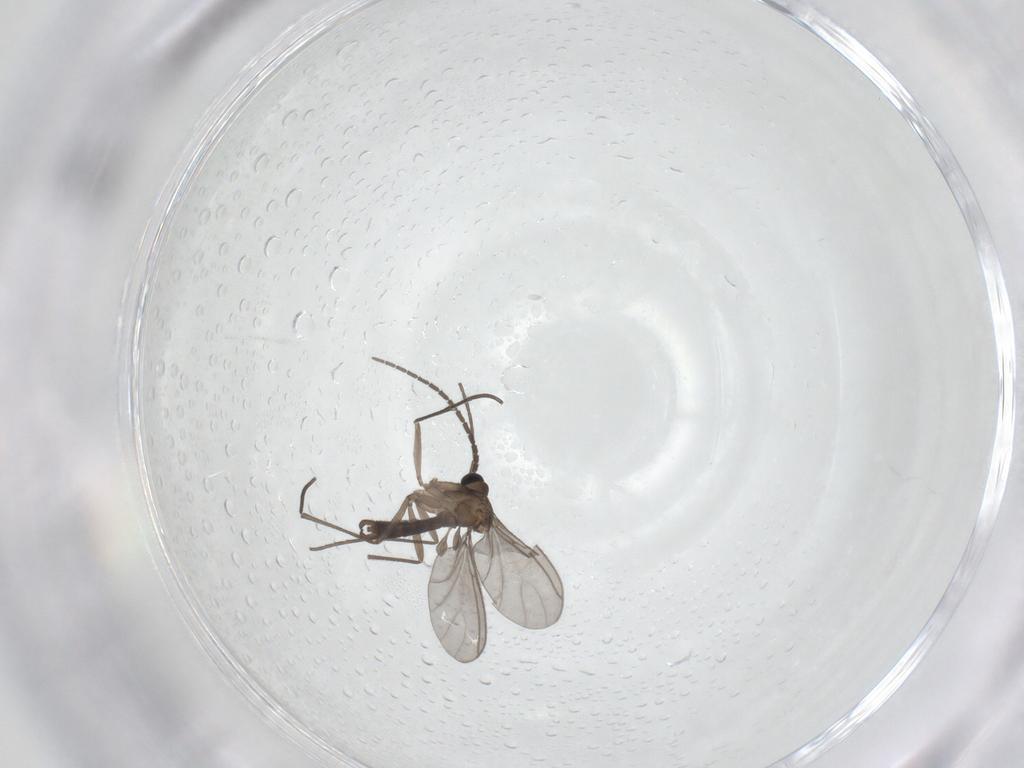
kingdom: Animalia
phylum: Arthropoda
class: Insecta
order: Diptera
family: Sciaridae
